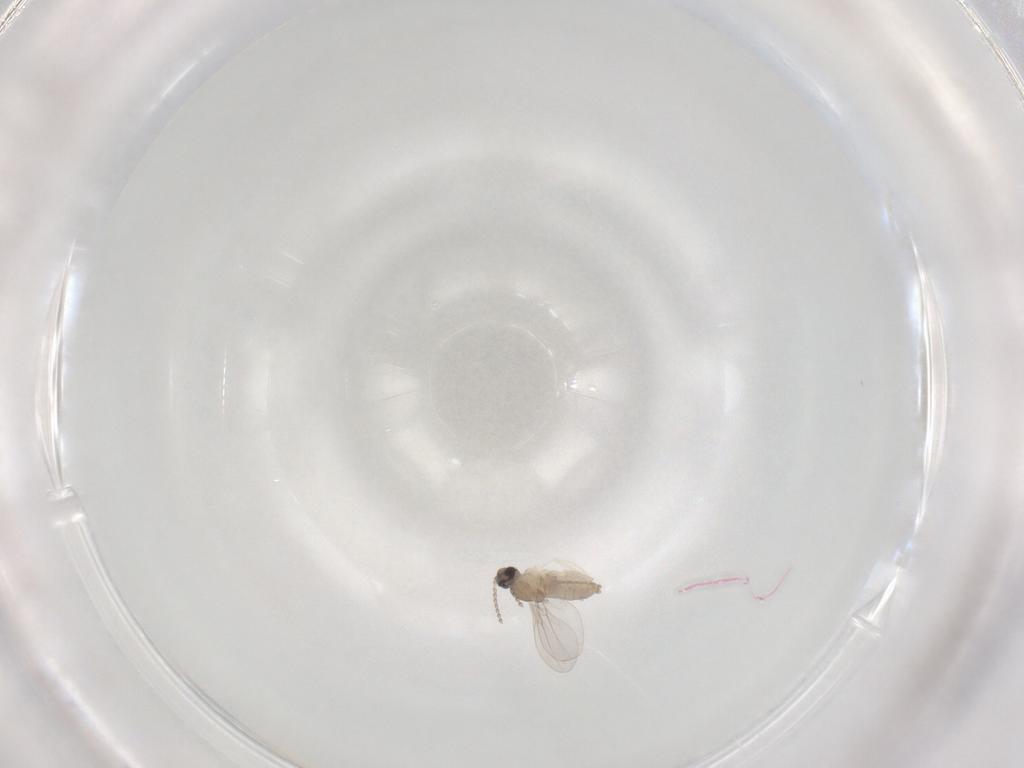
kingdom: Animalia
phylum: Arthropoda
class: Insecta
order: Diptera
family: Cecidomyiidae
